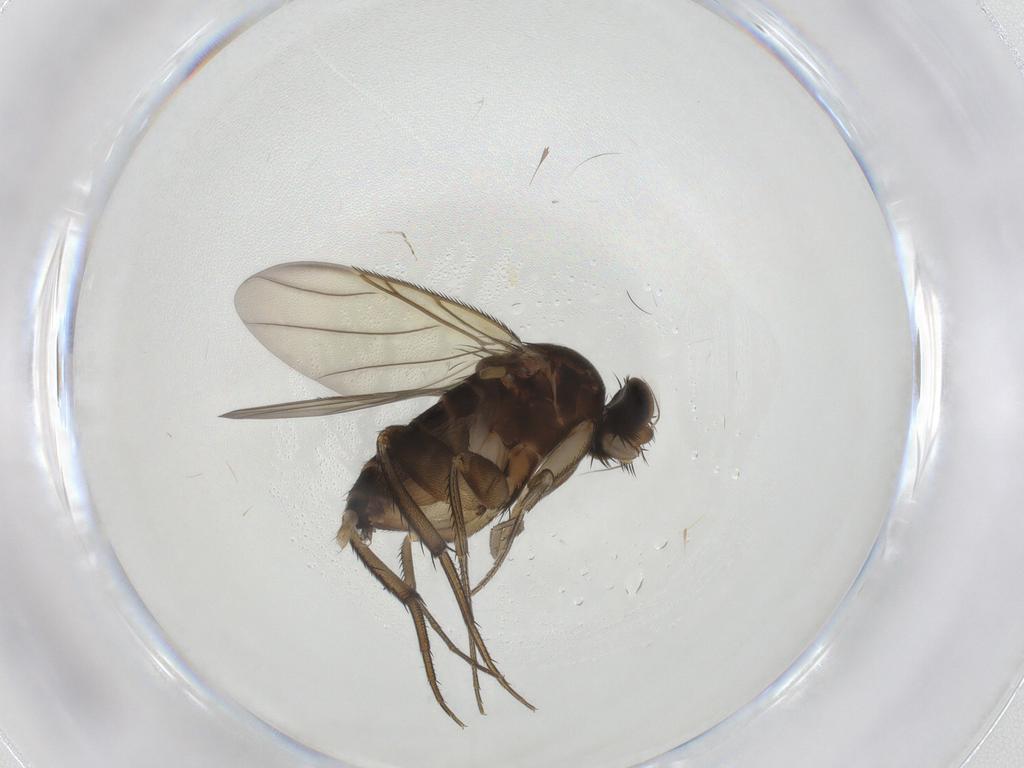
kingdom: Animalia
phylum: Arthropoda
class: Insecta
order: Diptera
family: Phoridae
